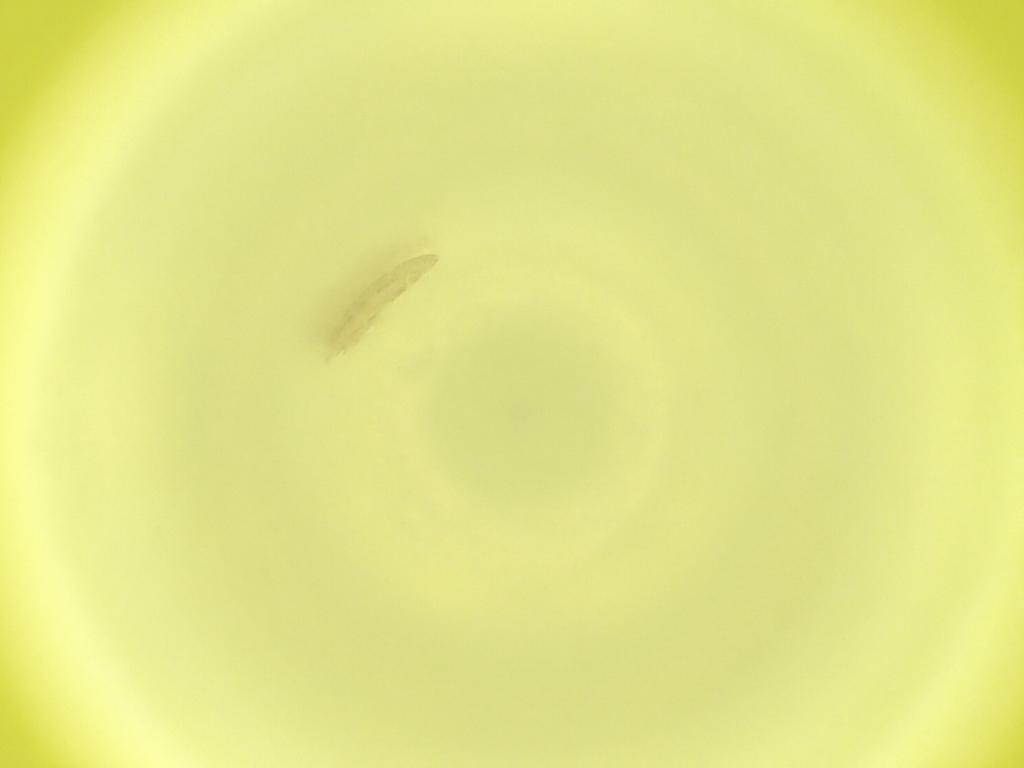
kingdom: Animalia
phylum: Arthropoda
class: Insecta
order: Diptera
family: Cecidomyiidae
